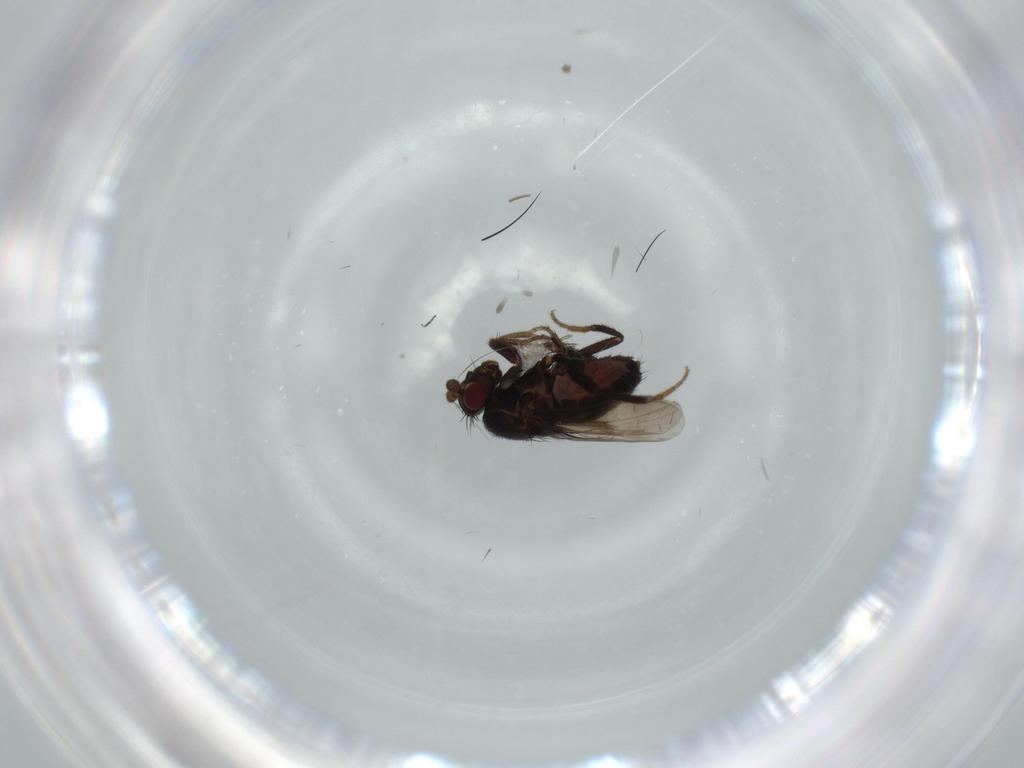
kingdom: Animalia
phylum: Arthropoda
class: Insecta
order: Diptera
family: Sphaeroceridae
